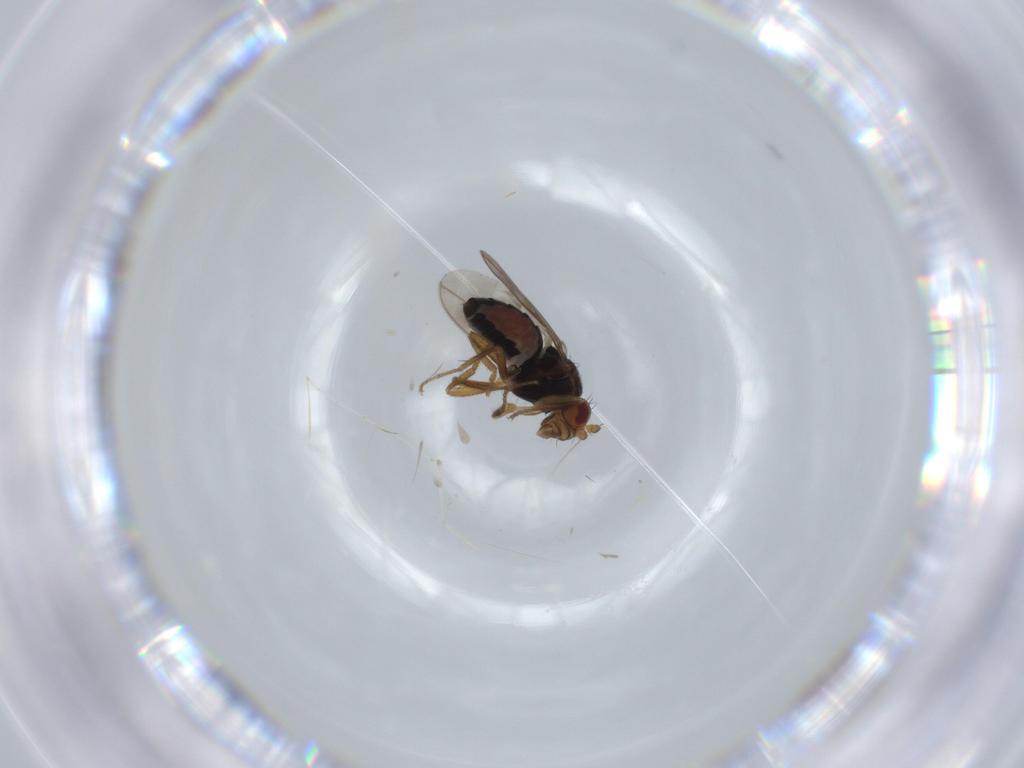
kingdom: Animalia
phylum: Arthropoda
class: Insecta
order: Diptera
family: Sphaeroceridae
